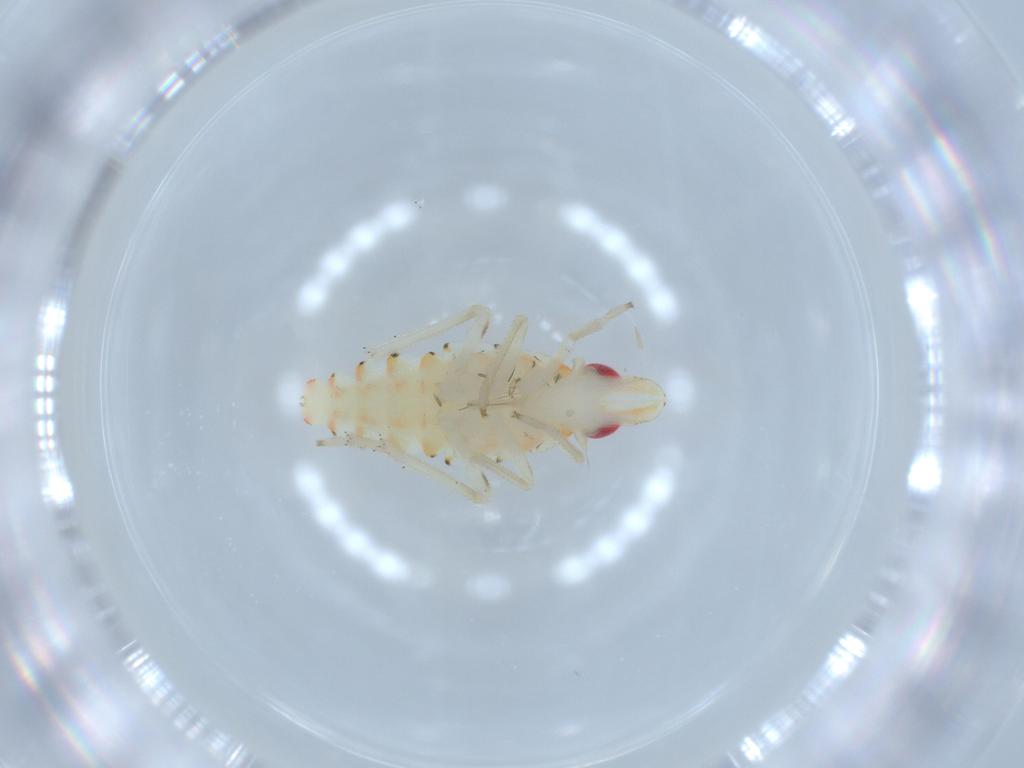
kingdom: Animalia
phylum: Arthropoda
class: Insecta
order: Hemiptera
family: Tropiduchidae
